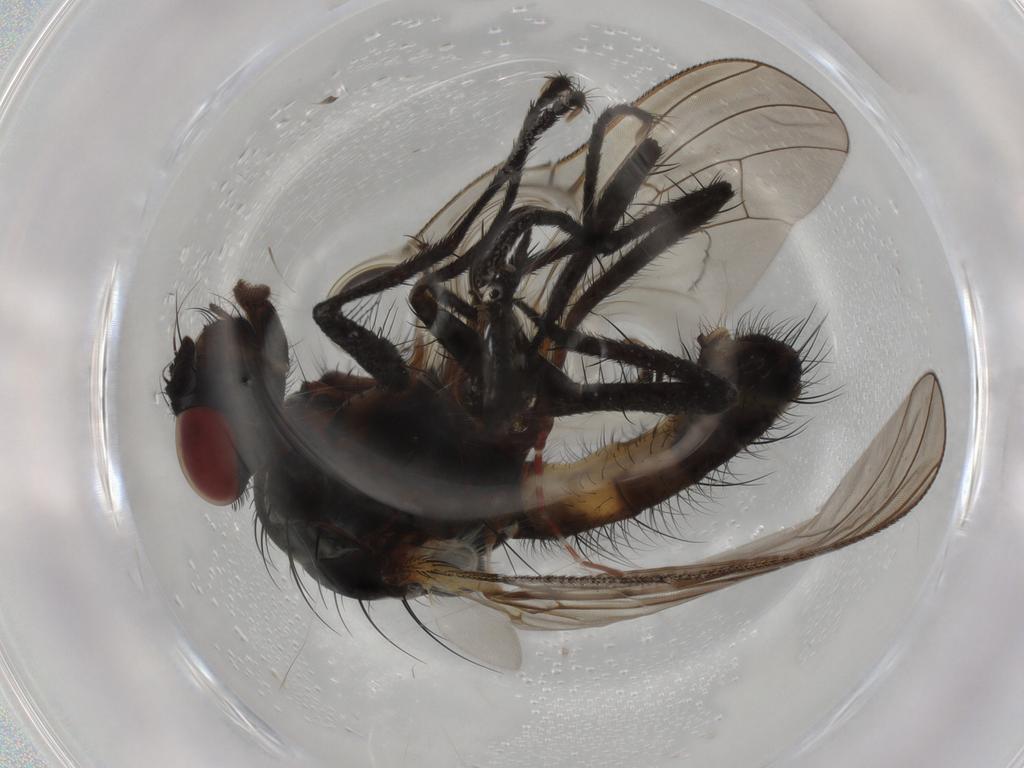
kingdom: Animalia
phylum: Arthropoda
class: Insecta
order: Diptera
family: Anthomyiidae
